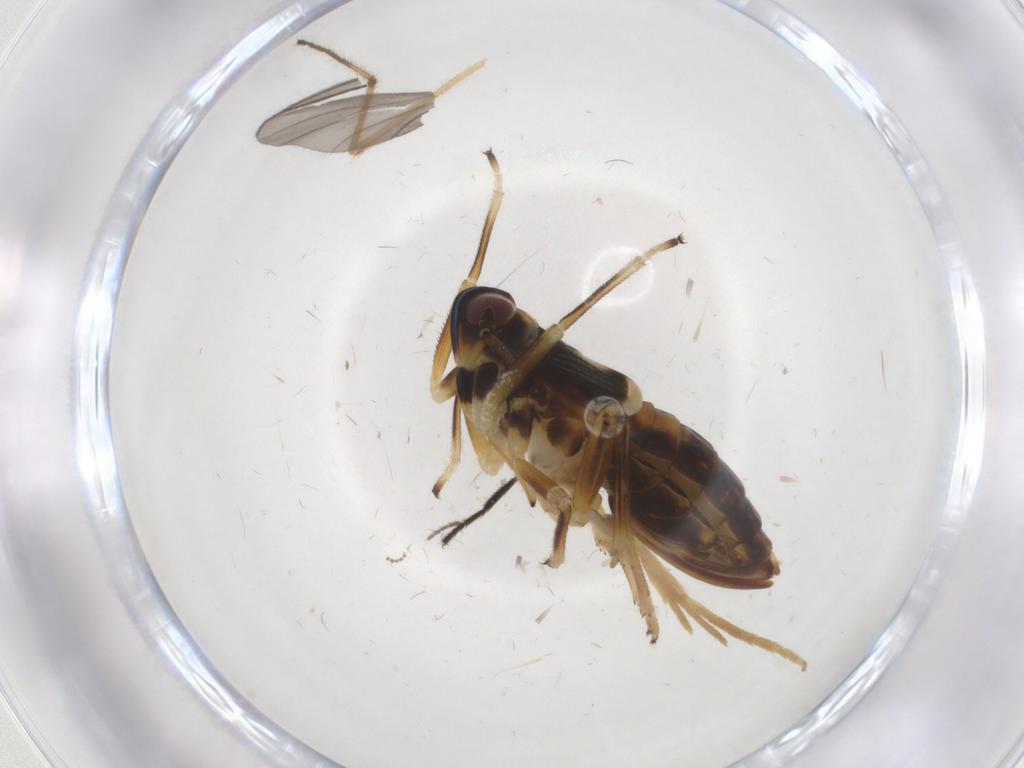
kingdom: Animalia
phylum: Arthropoda
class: Insecta
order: Hemiptera
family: Delphacidae
